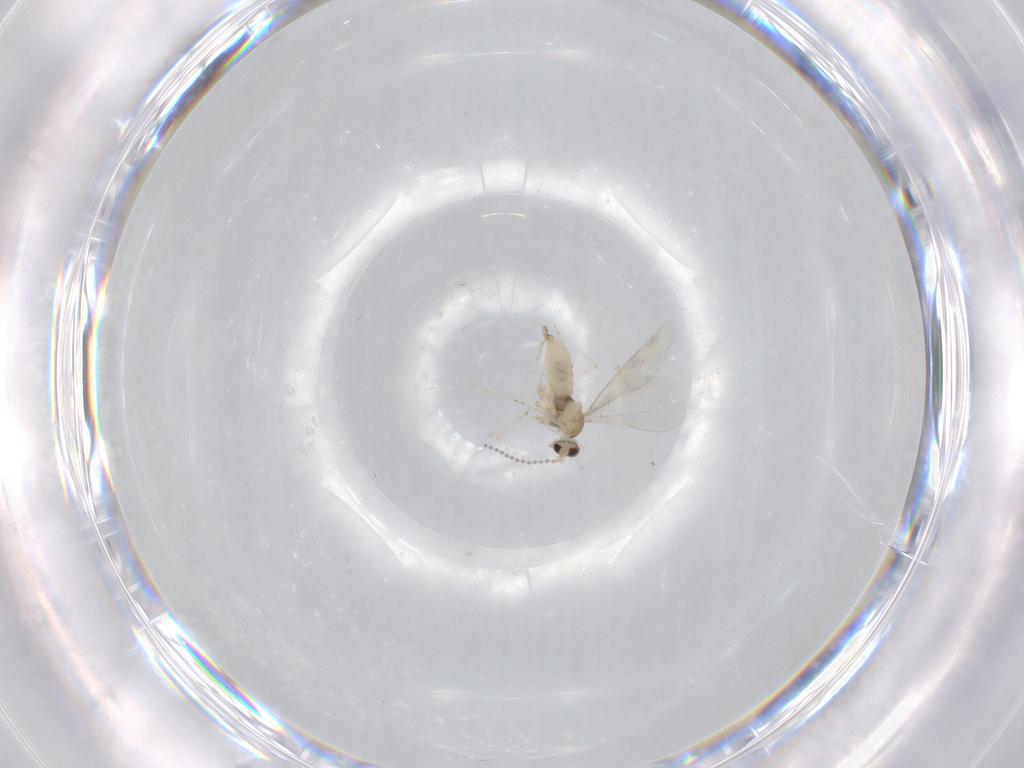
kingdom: Animalia
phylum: Arthropoda
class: Insecta
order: Diptera
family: Cecidomyiidae
